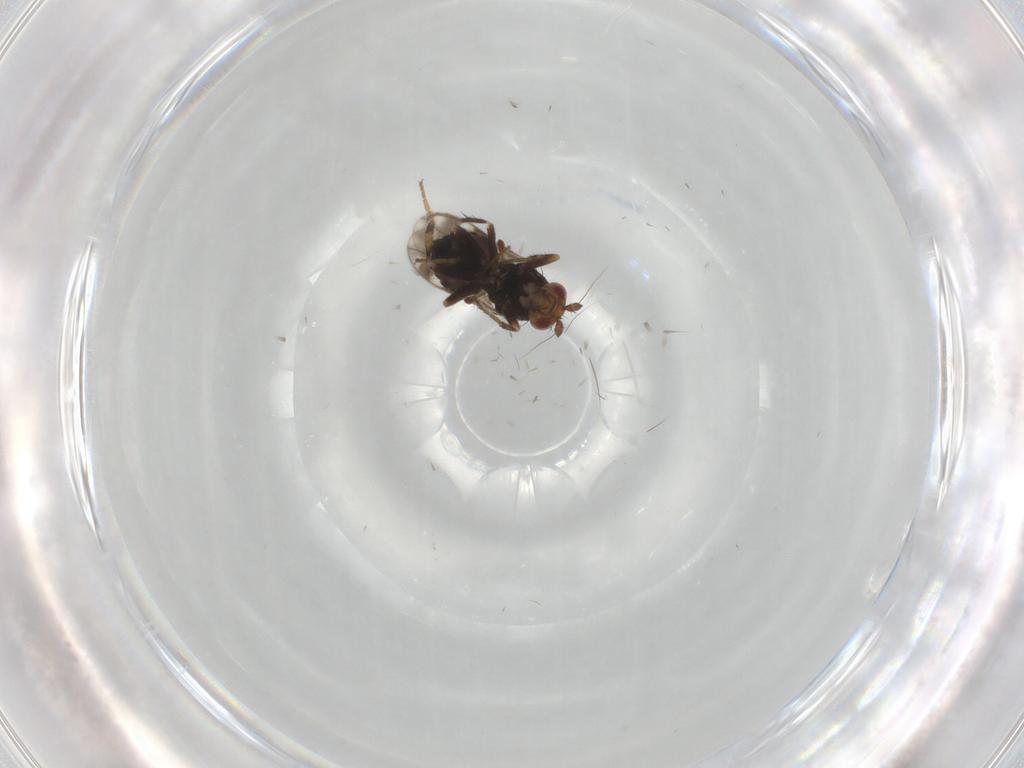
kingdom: Animalia
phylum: Arthropoda
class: Insecta
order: Diptera
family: Sphaeroceridae
